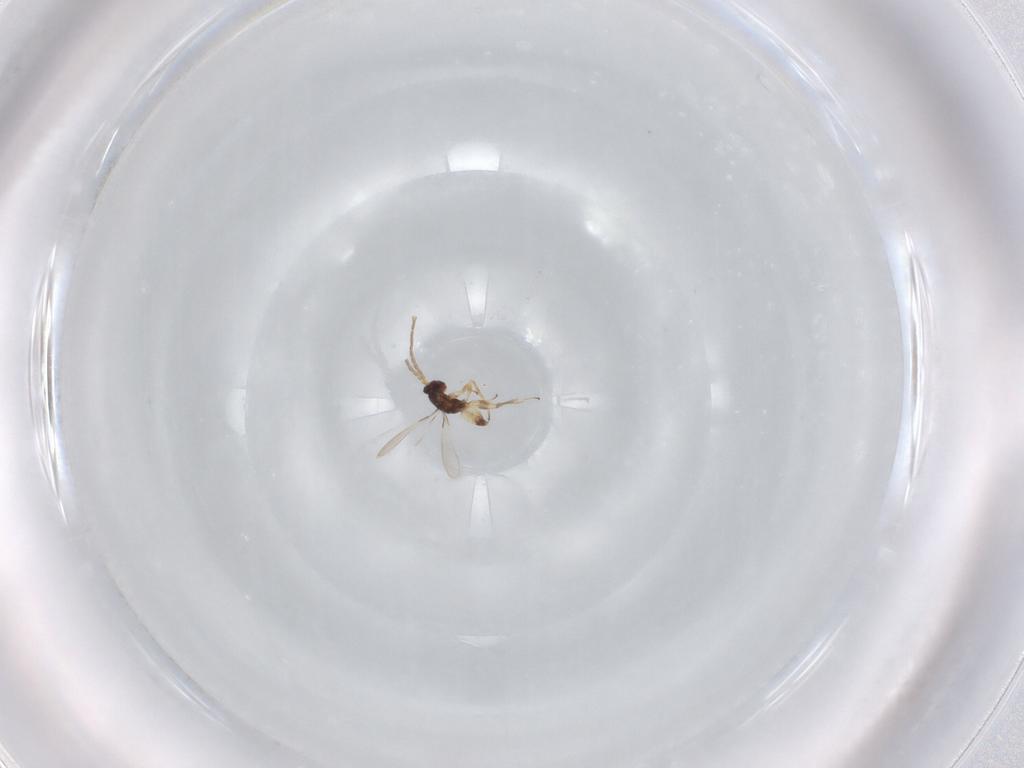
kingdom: Animalia
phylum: Arthropoda
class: Insecta
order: Hymenoptera
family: Mymaridae
